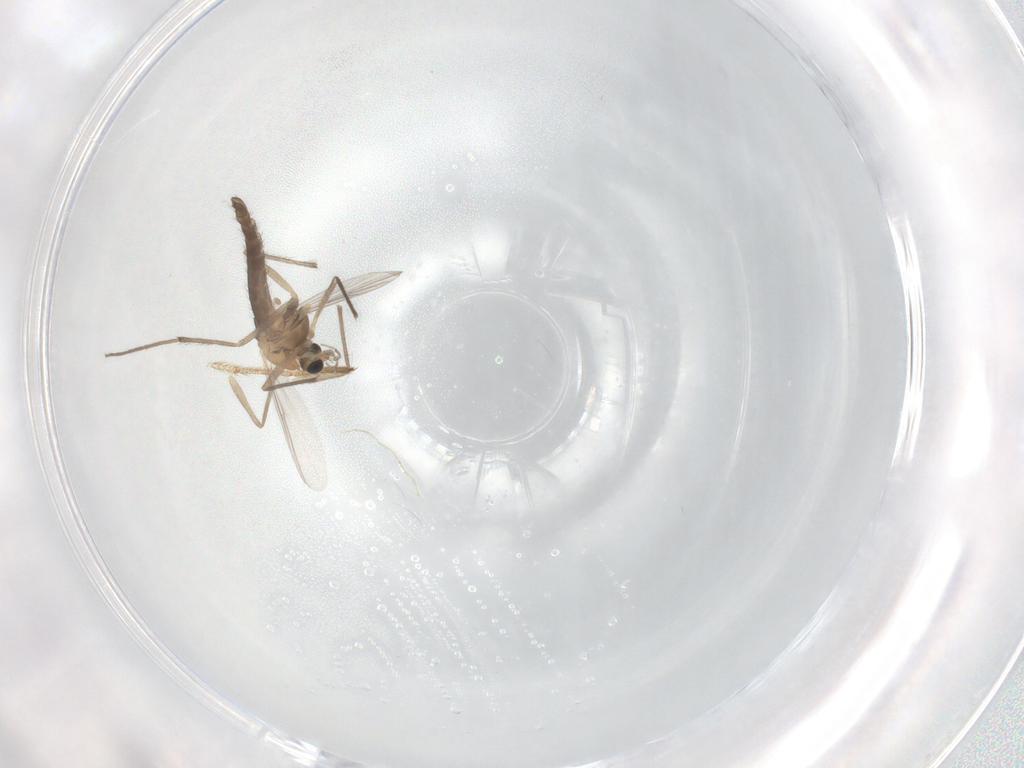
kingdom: Animalia
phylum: Arthropoda
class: Insecta
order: Diptera
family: Chironomidae
